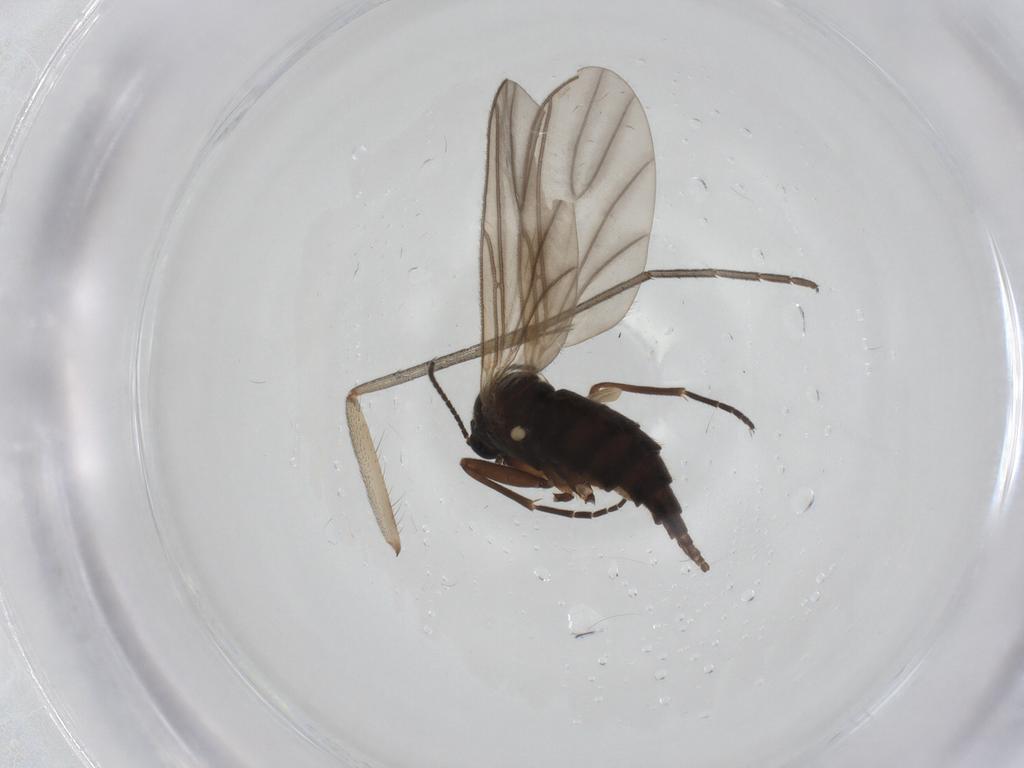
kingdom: Animalia
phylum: Arthropoda
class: Insecta
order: Diptera
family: Sciaridae
